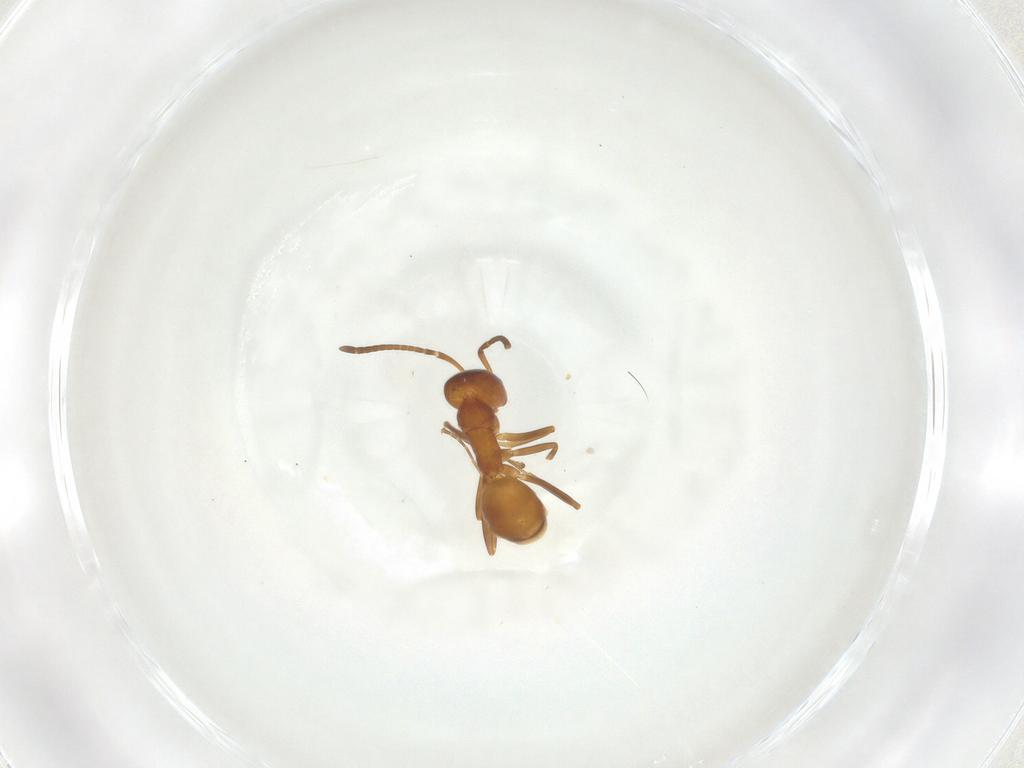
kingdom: Animalia
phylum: Arthropoda
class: Insecta
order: Hymenoptera
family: Formicidae
